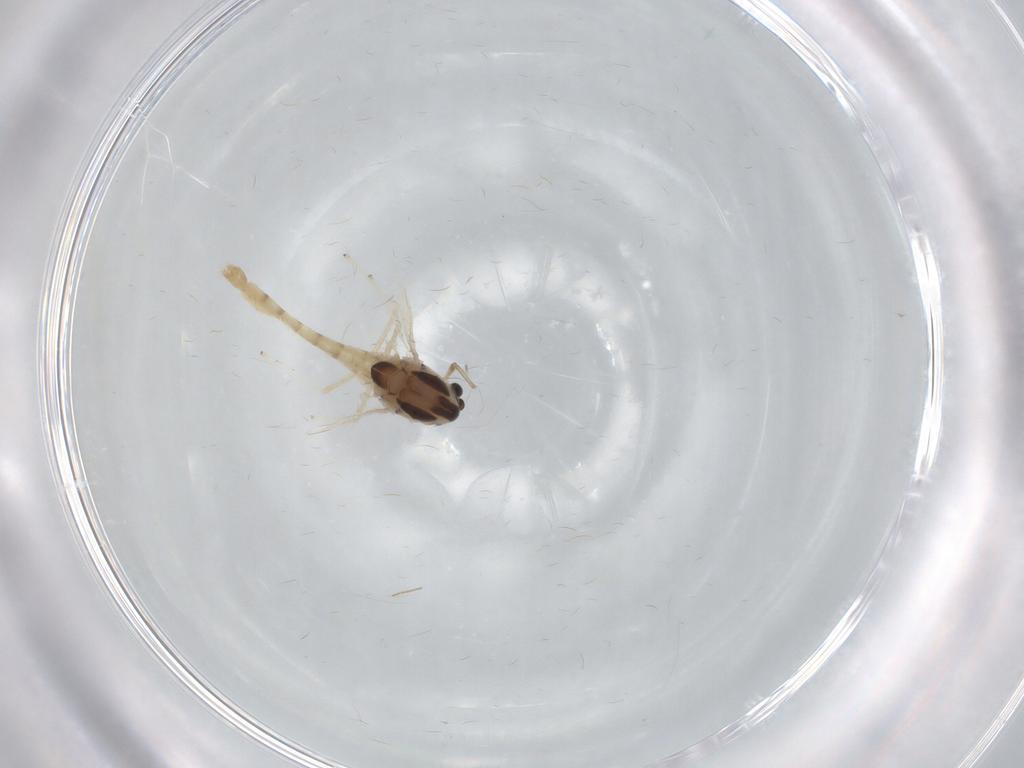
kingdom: Animalia
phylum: Arthropoda
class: Insecta
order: Diptera
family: Chironomidae
